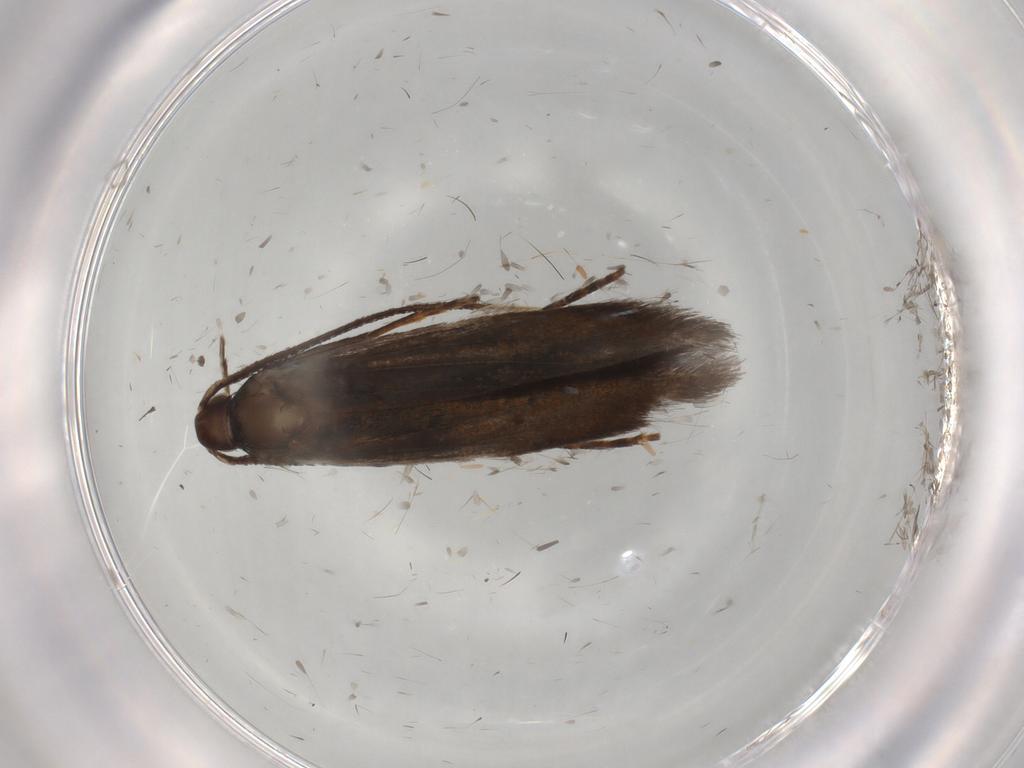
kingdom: Animalia
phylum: Arthropoda
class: Insecta
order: Lepidoptera
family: Coleophoridae
